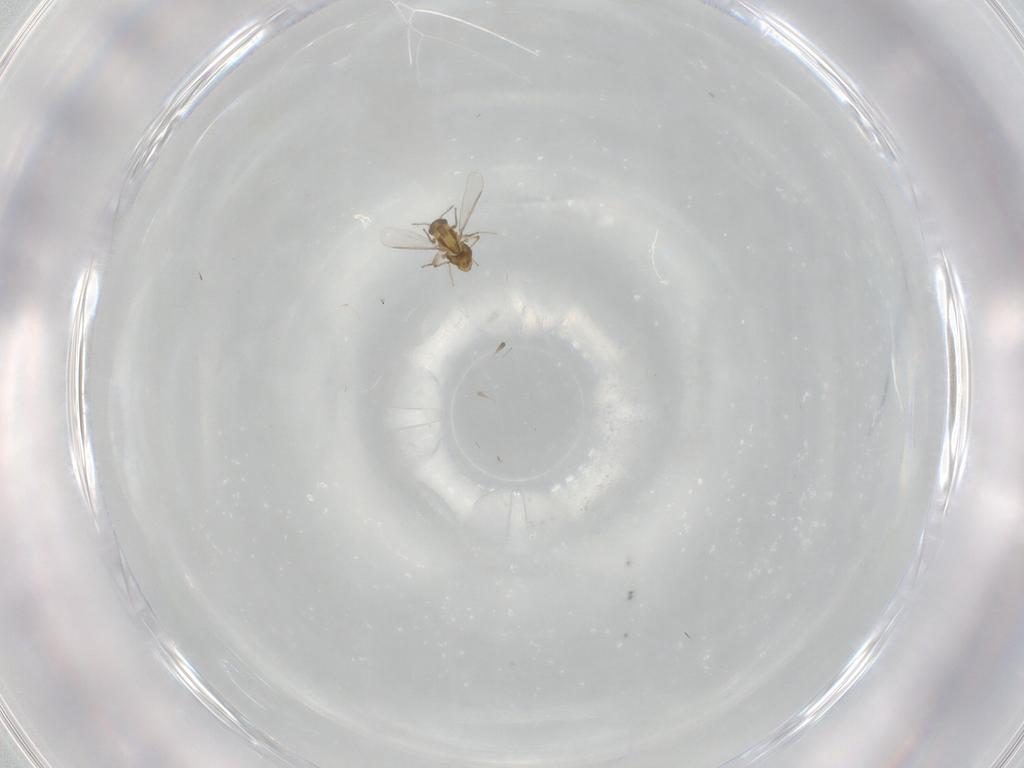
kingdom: Animalia
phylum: Arthropoda
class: Insecta
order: Diptera
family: Chironomidae
